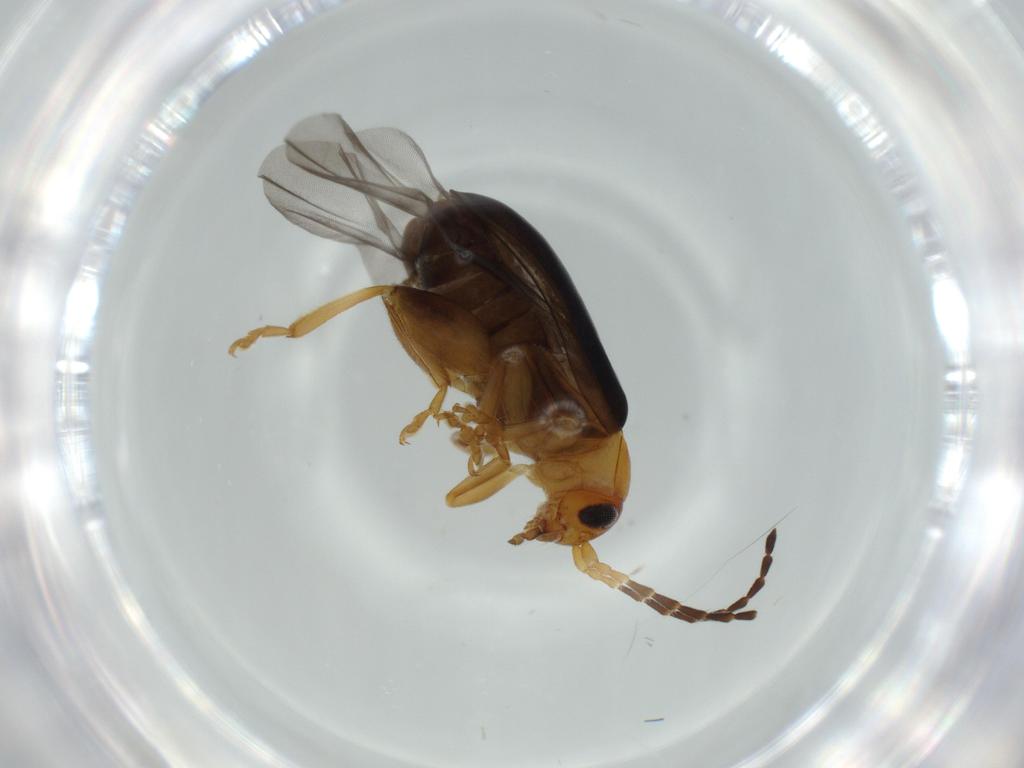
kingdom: Animalia
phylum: Arthropoda
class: Insecta
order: Coleoptera
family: Chrysomelidae
